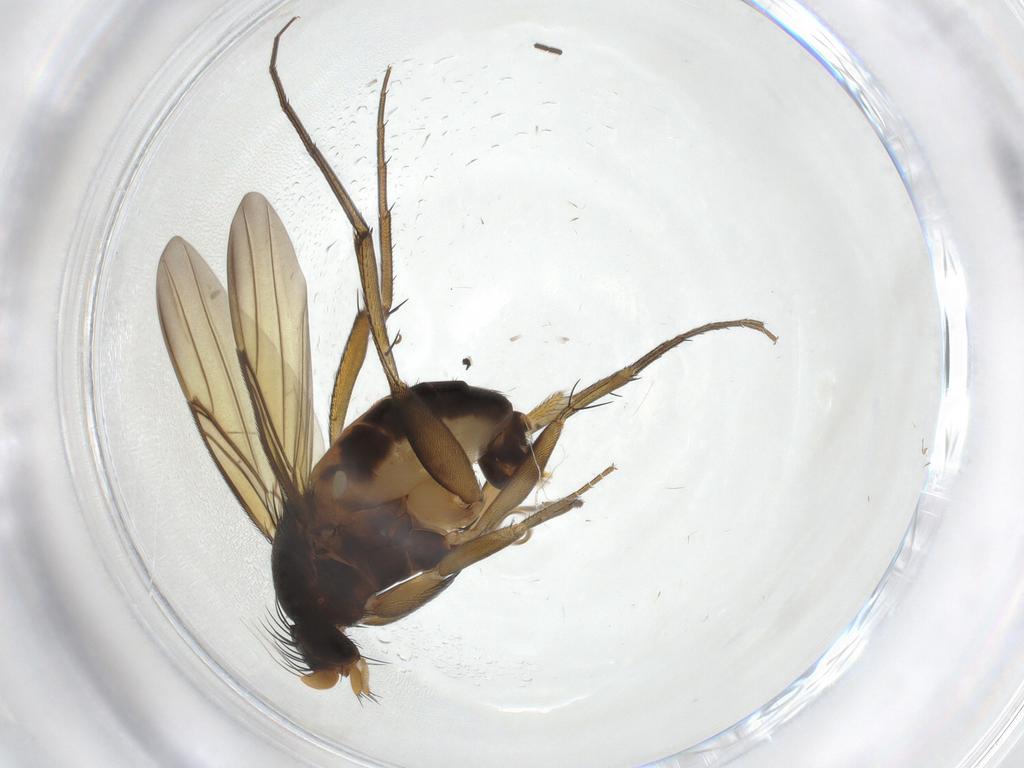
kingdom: Animalia
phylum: Arthropoda
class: Insecta
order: Diptera
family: Phoridae
